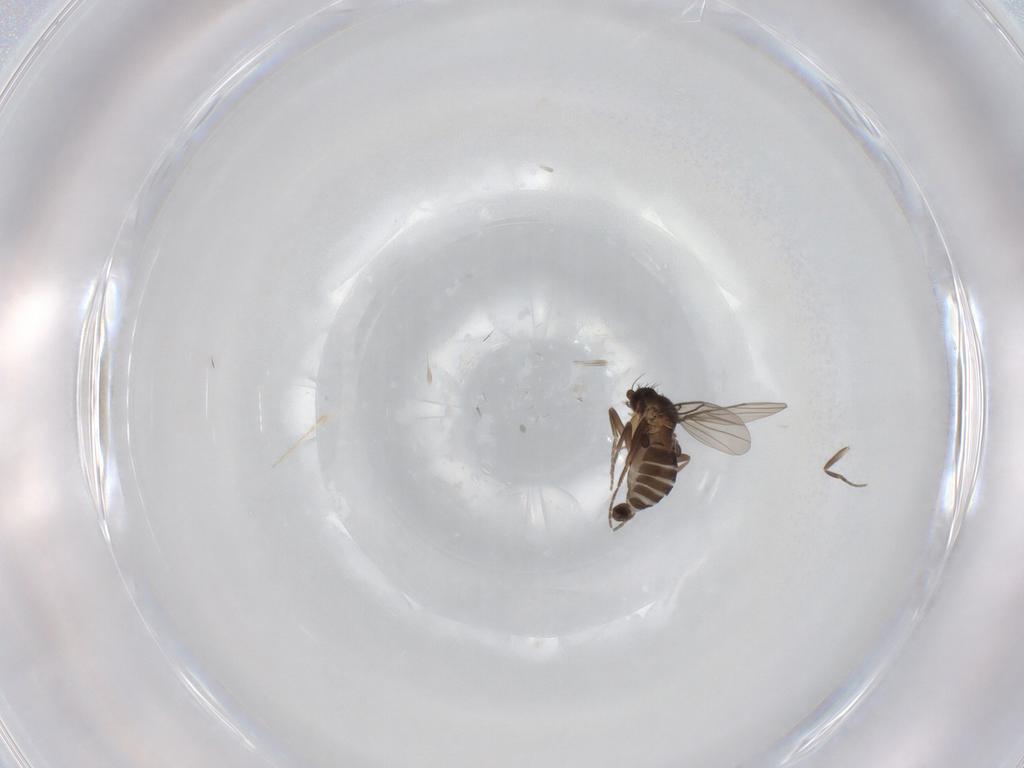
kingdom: Animalia
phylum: Arthropoda
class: Insecta
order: Diptera
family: Phoridae
